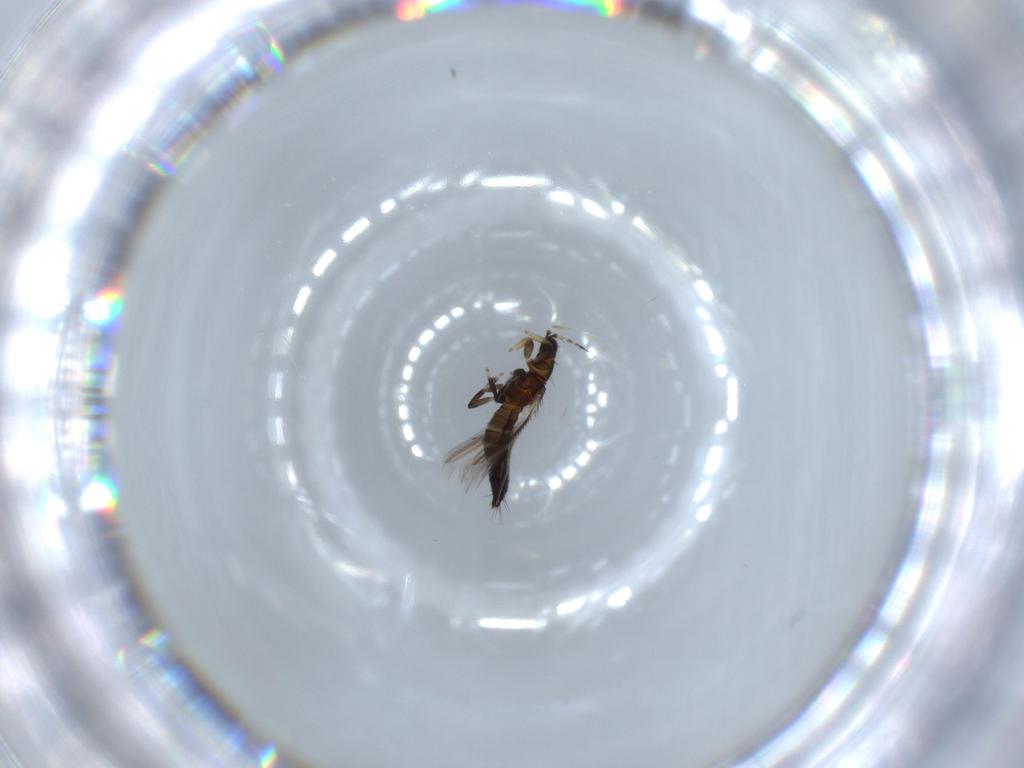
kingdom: Animalia
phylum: Arthropoda
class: Insecta
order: Thysanoptera
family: Thripidae
